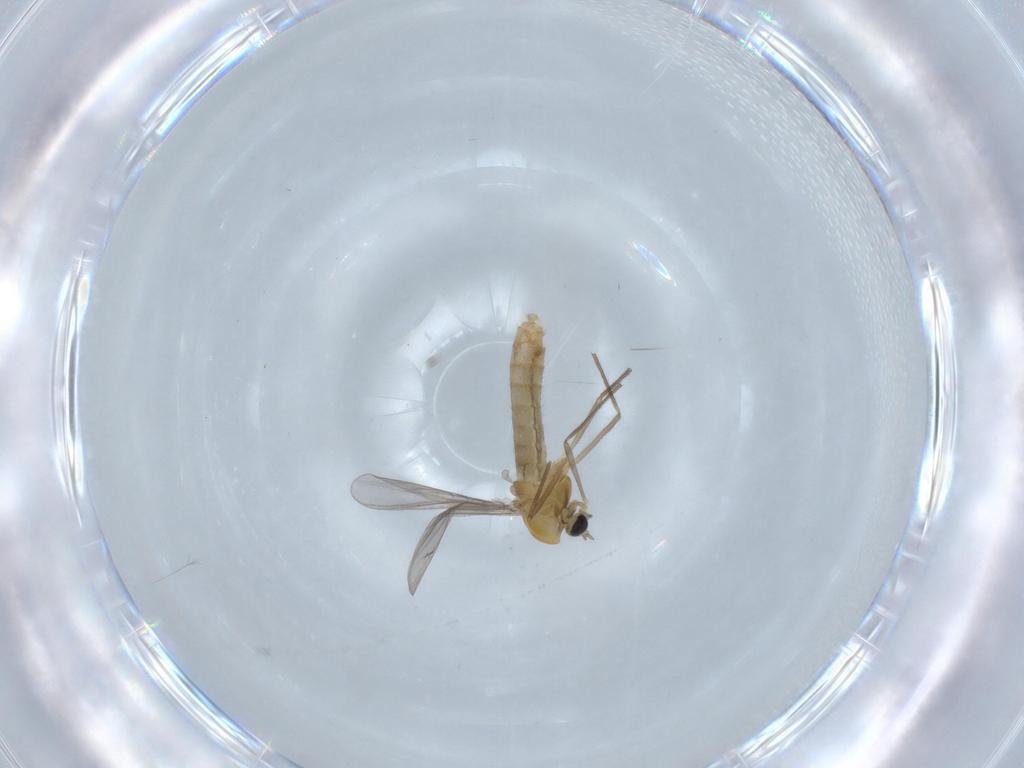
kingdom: Animalia
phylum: Arthropoda
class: Insecta
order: Diptera
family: Chironomidae
